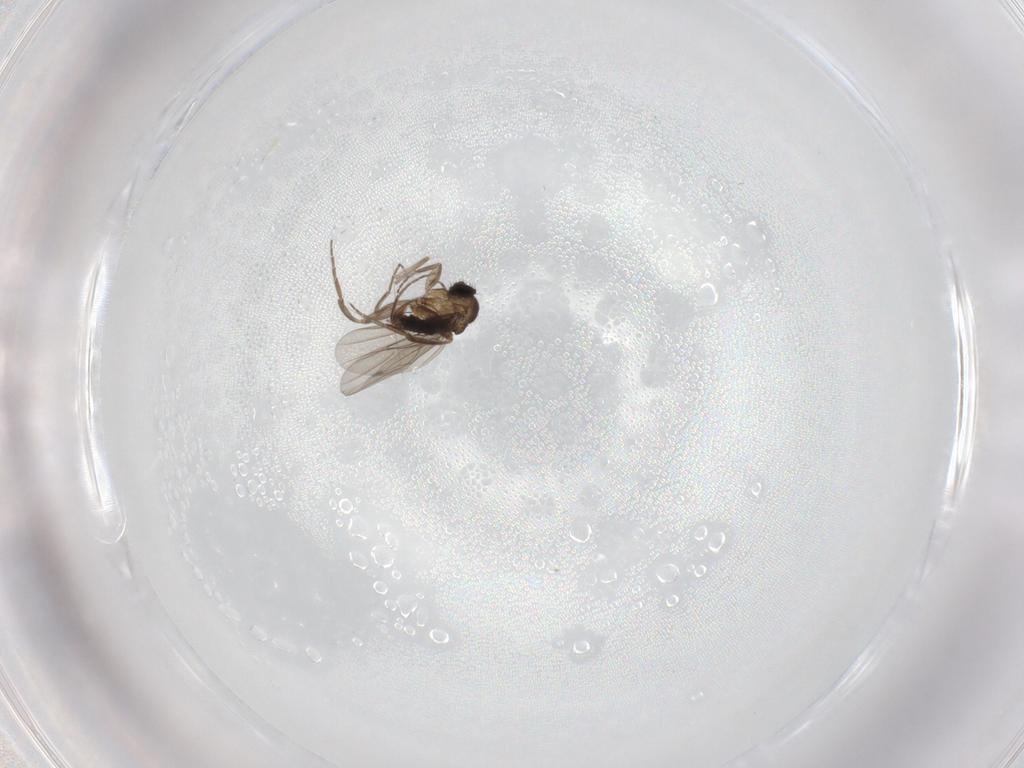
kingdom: Animalia
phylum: Arthropoda
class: Insecta
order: Diptera
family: Phoridae
